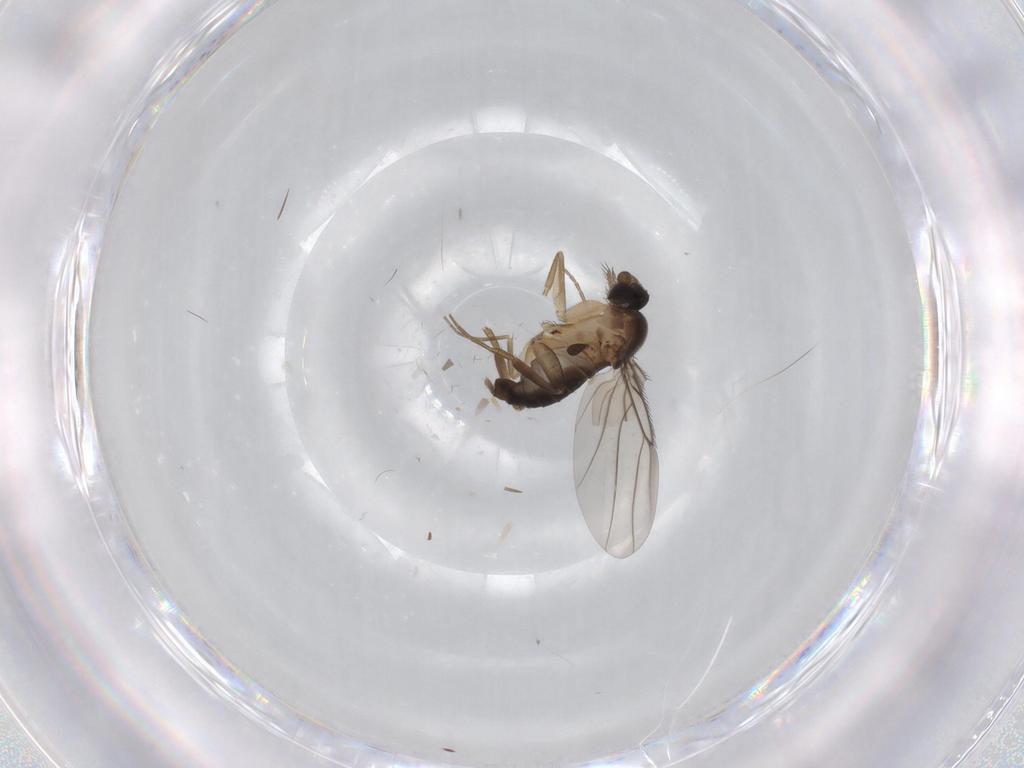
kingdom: Animalia
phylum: Arthropoda
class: Insecta
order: Diptera
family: Phoridae
